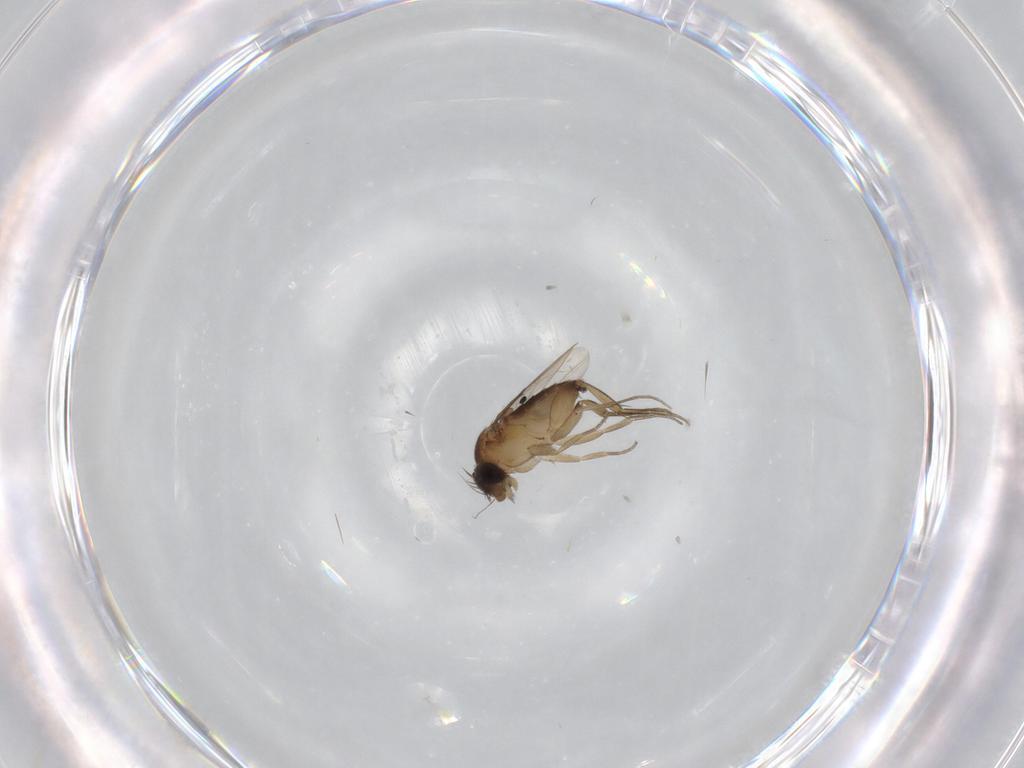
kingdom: Animalia
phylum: Arthropoda
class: Insecta
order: Diptera
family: Phoridae
